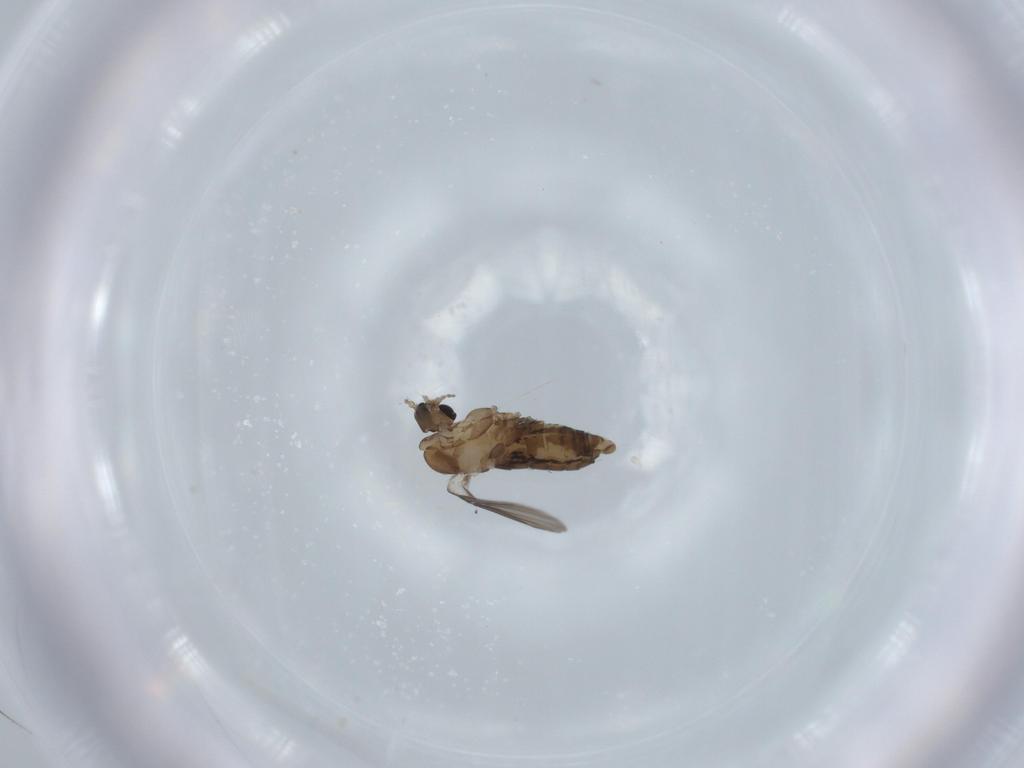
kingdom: Animalia
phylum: Arthropoda
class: Insecta
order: Diptera
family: Psychodidae
